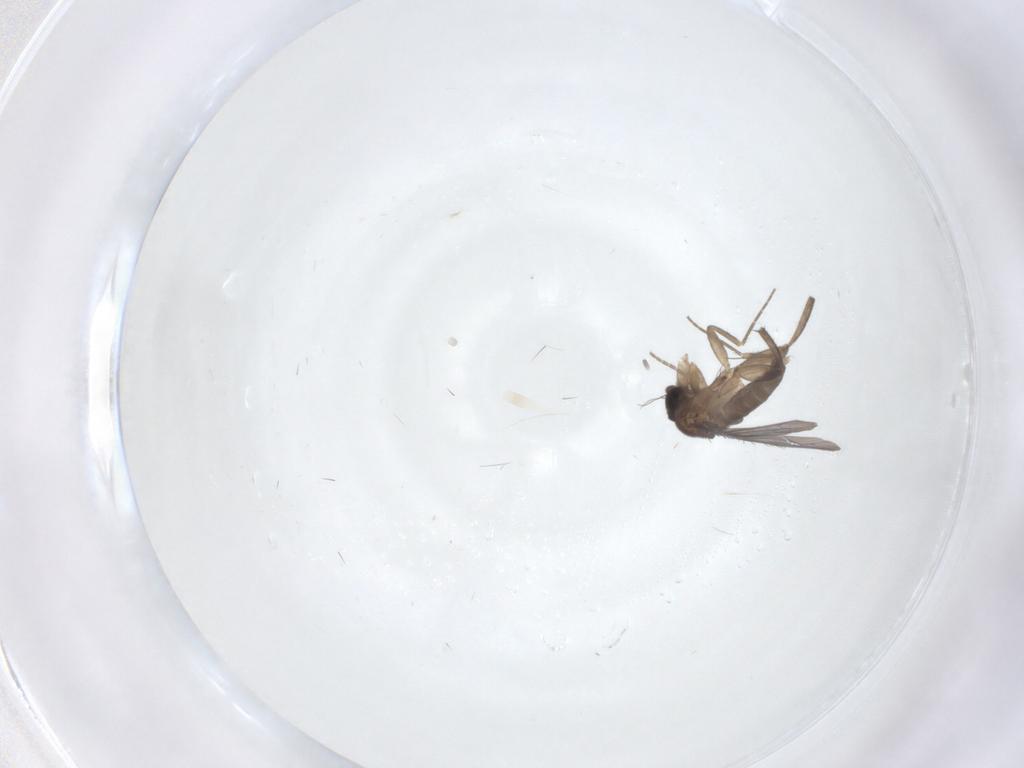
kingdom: Animalia
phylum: Arthropoda
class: Insecta
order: Diptera
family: Phoridae
